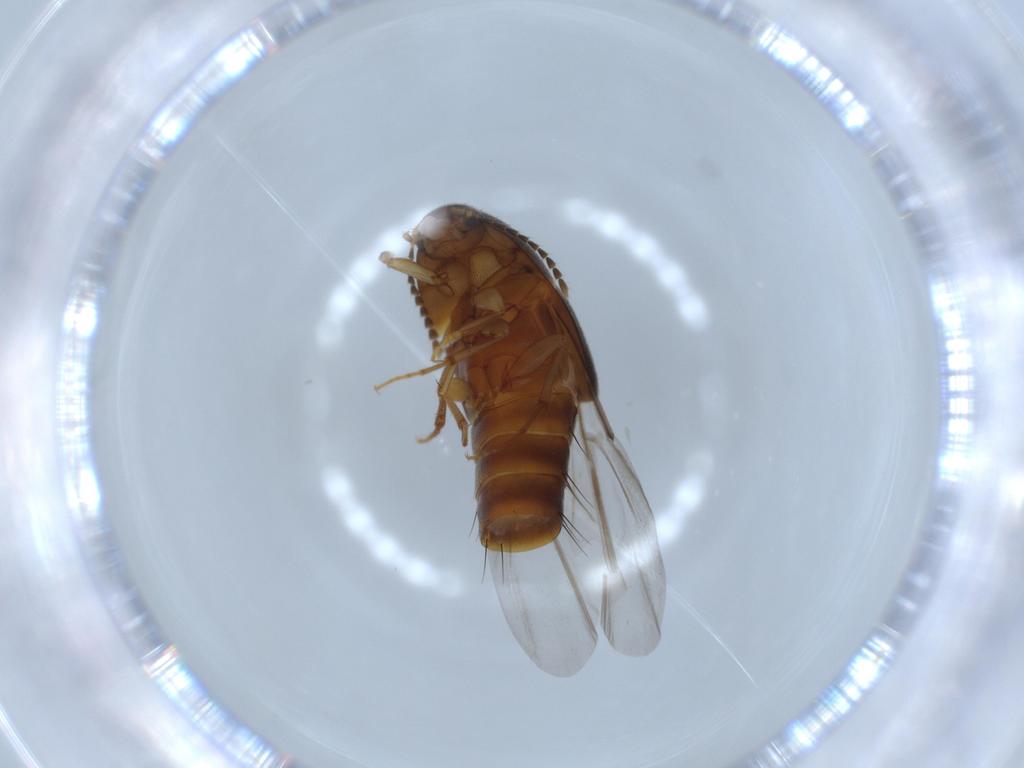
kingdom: Animalia
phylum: Arthropoda
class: Insecta
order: Coleoptera
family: Staphylinidae
